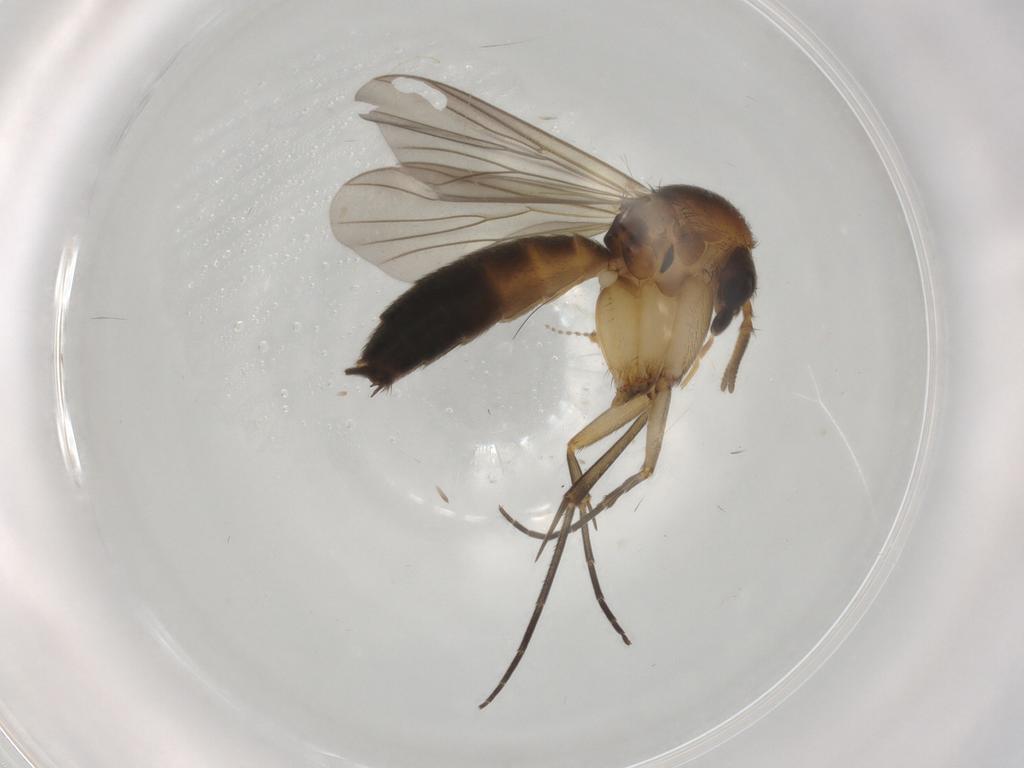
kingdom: Animalia
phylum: Arthropoda
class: Insecta
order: Diptera
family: Mycetophilidae
